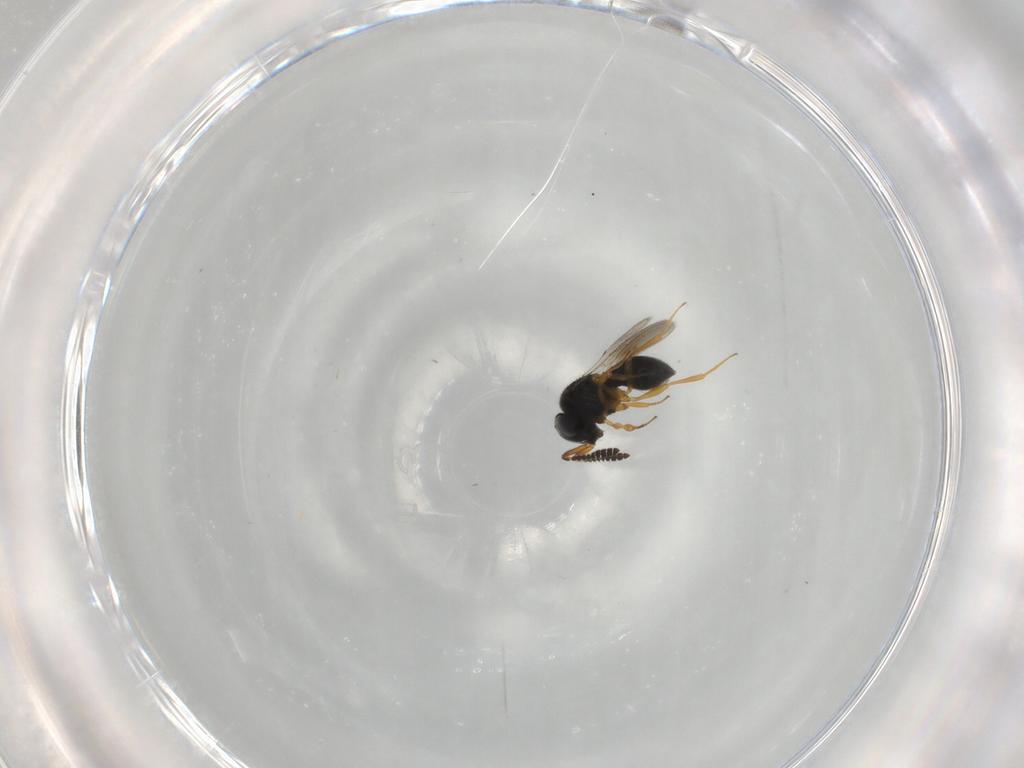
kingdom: Animalia
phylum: Arthropoda
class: Insecta
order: Hymenoptera
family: Scelionidae
